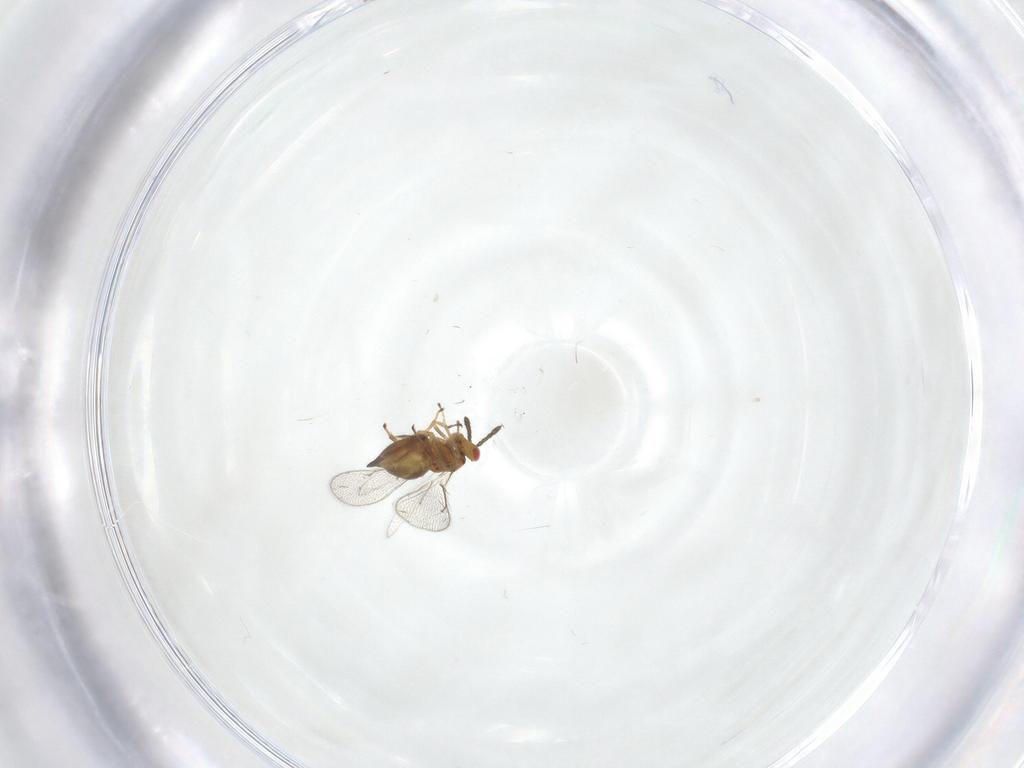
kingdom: Animalia
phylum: Arthropoda
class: Insecta
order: Hymenoptera
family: Eulophidae
